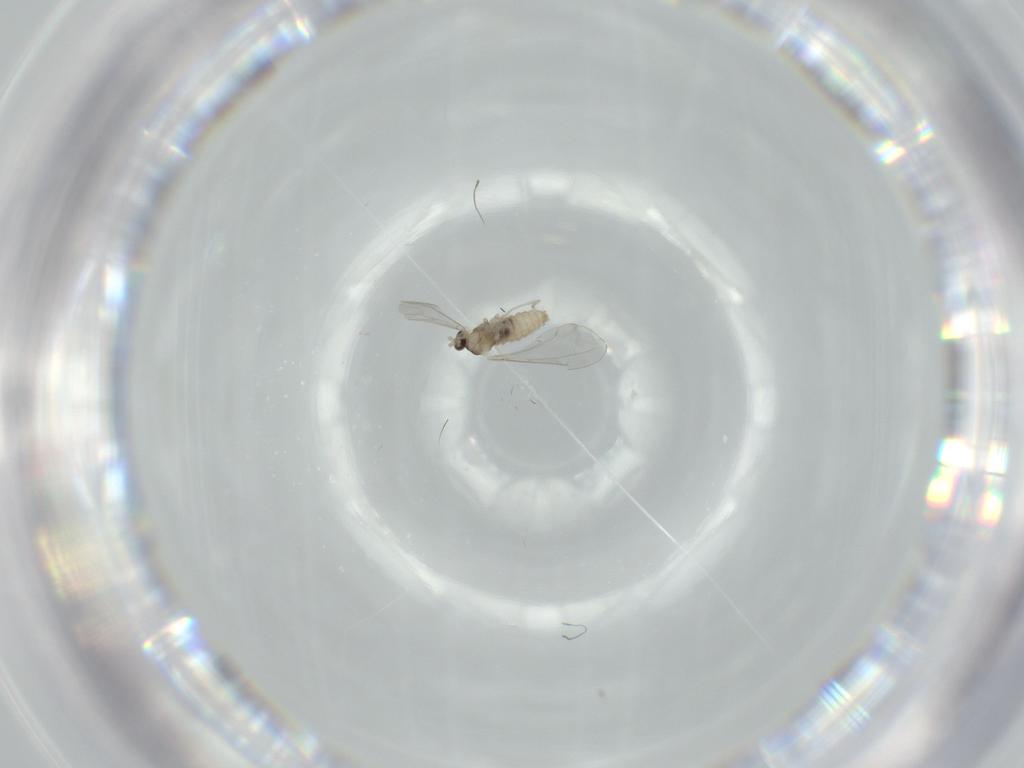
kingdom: Animalia
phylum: Arthropoda
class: Insecta
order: Diptera
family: Cecidomyiidae
